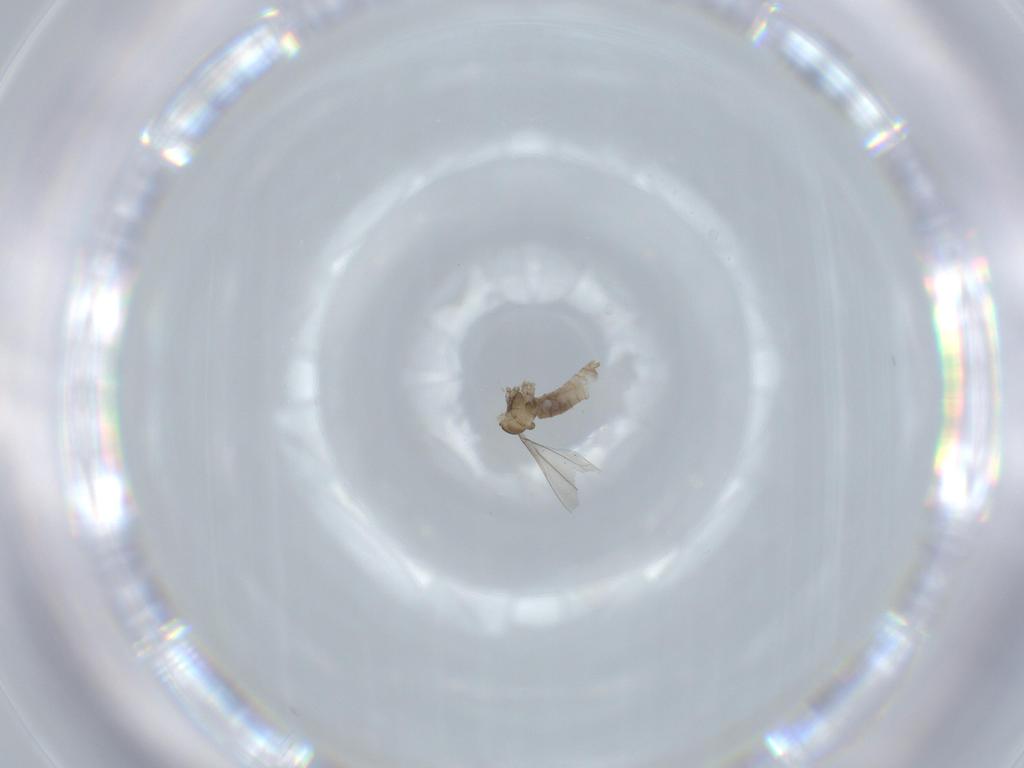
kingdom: Animalia
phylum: Arthropoda
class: Insecta
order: Diptera
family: Cecidomyiidae
